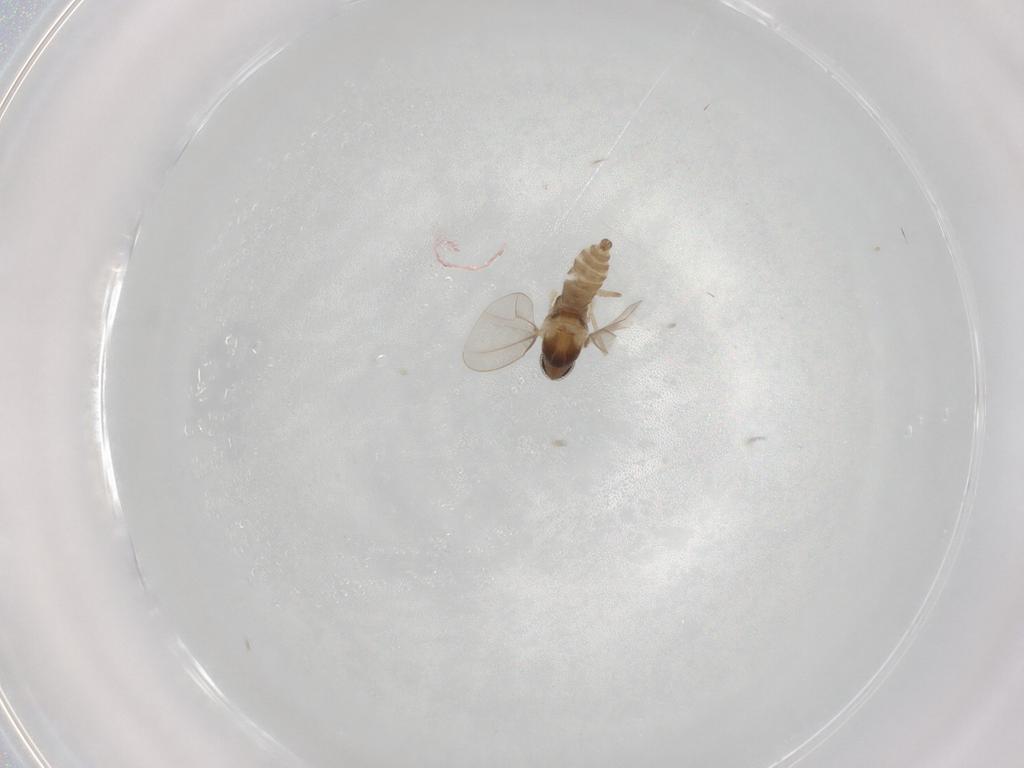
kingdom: Animalia
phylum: Arthropoda
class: Insecta
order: Diptera
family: Cecidomyiidae
